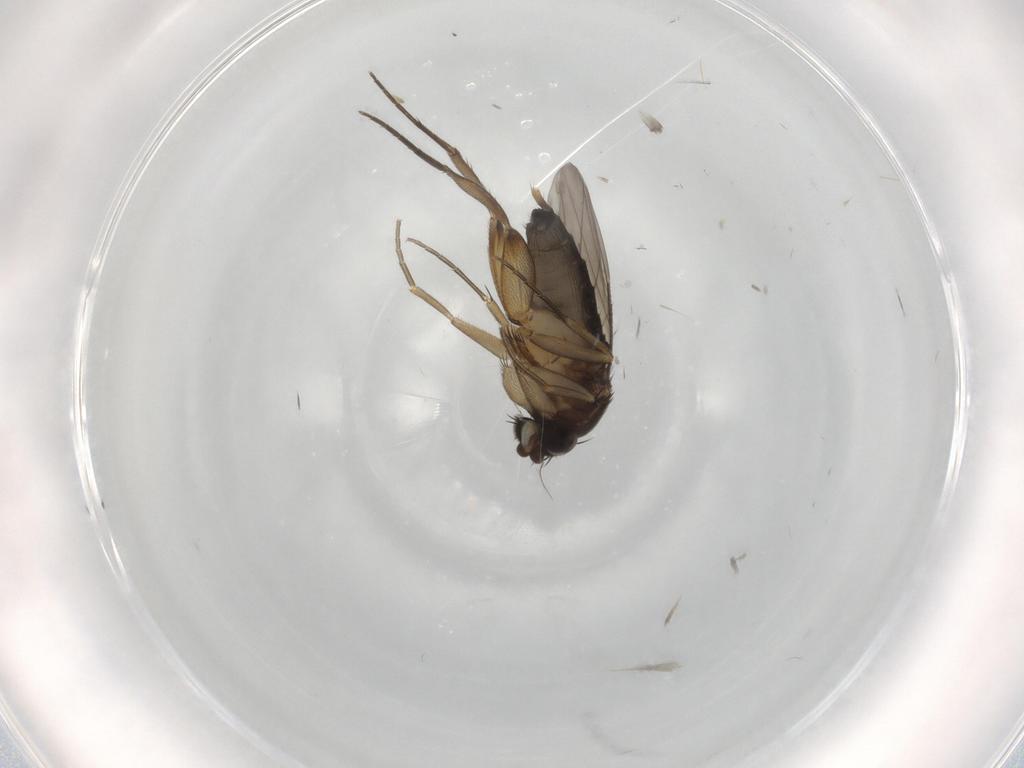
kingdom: Animalia
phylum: Arthropoda
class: Insecta
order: Diptera
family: Phoridae
